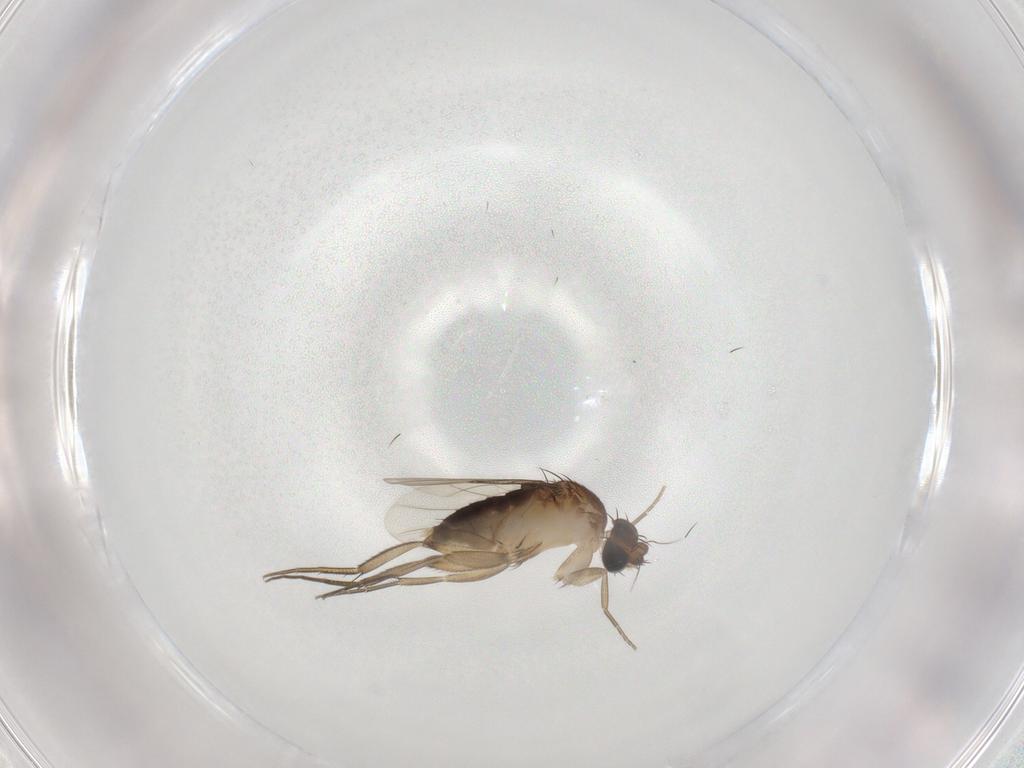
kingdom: Animalia
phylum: Arthropoda
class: Insecta
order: Diptera
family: Phoridae
